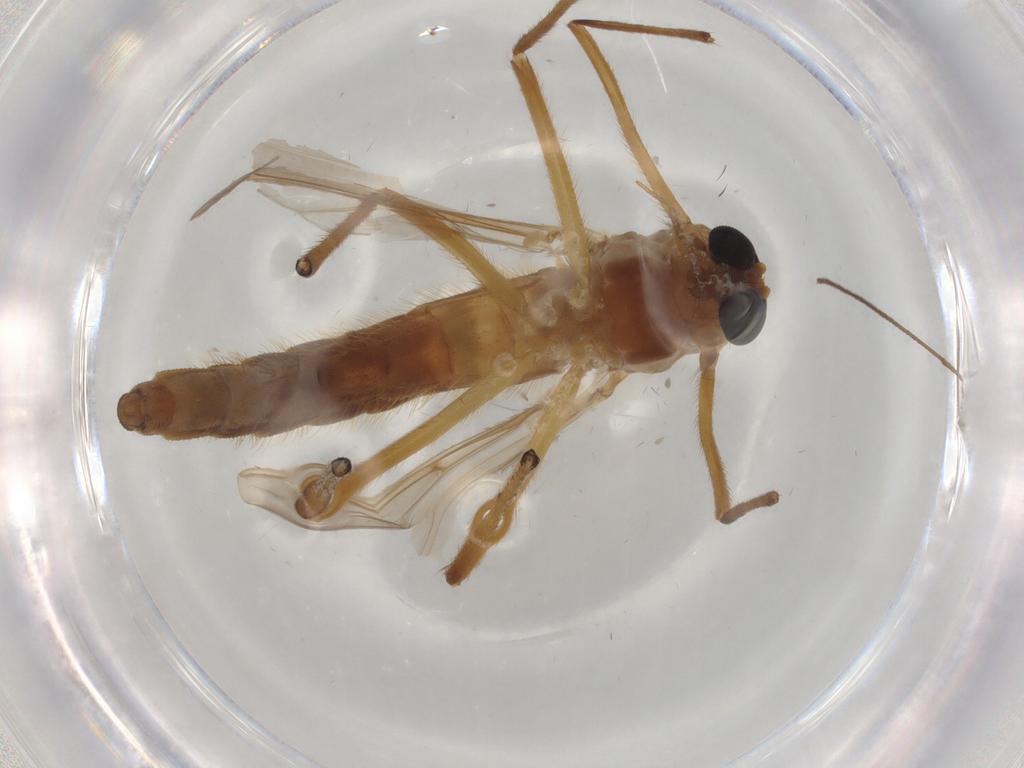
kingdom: Animalia
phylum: Arthropoda
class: Insecta
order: Diptera
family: Limoniidae
